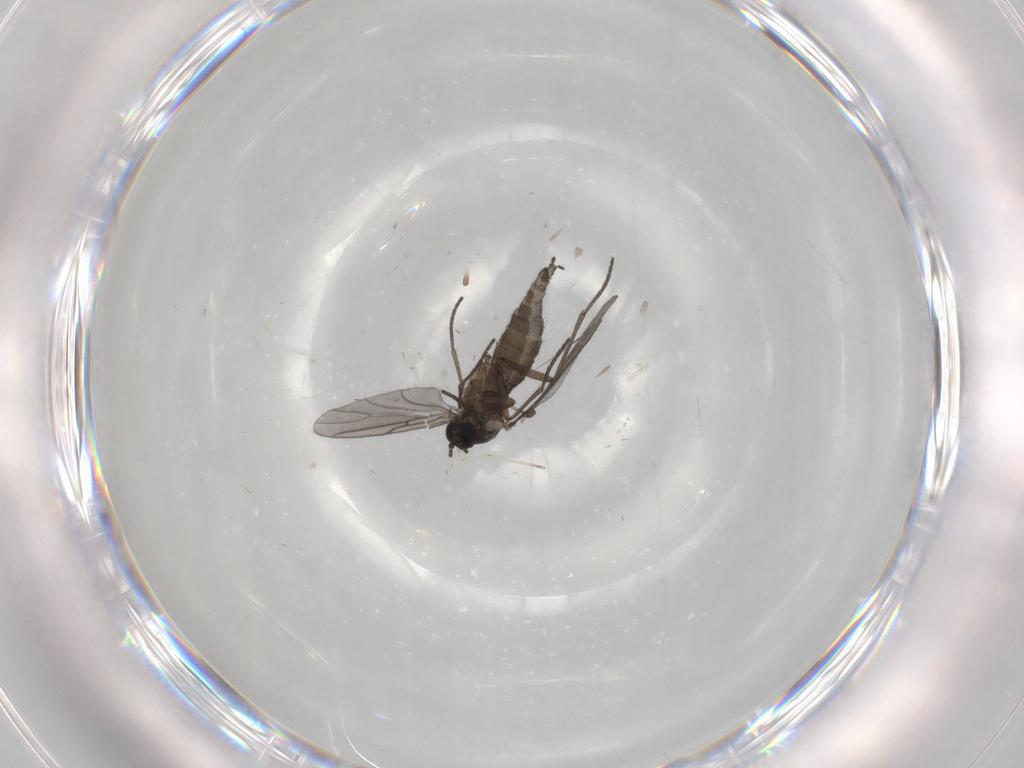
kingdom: Animalia
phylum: Arthropoda
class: Insecta
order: Diptera
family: Sciaridae
